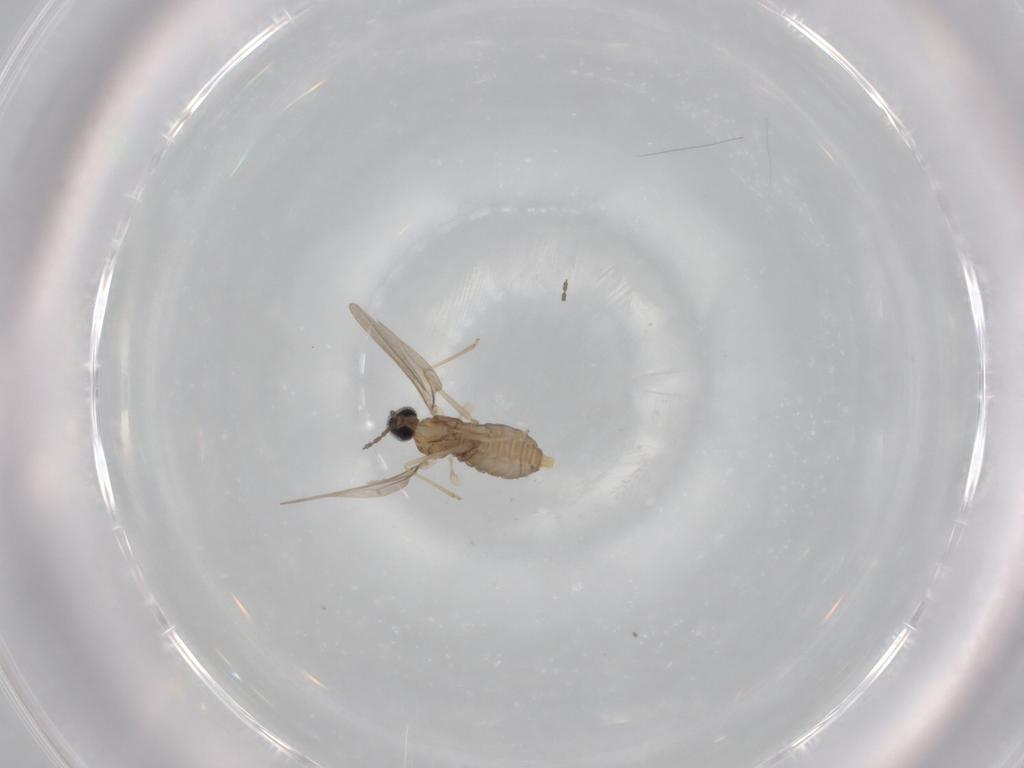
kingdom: Animalia
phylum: Arthropoda
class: Insecta
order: Diptera
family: Cecidomyiidae
